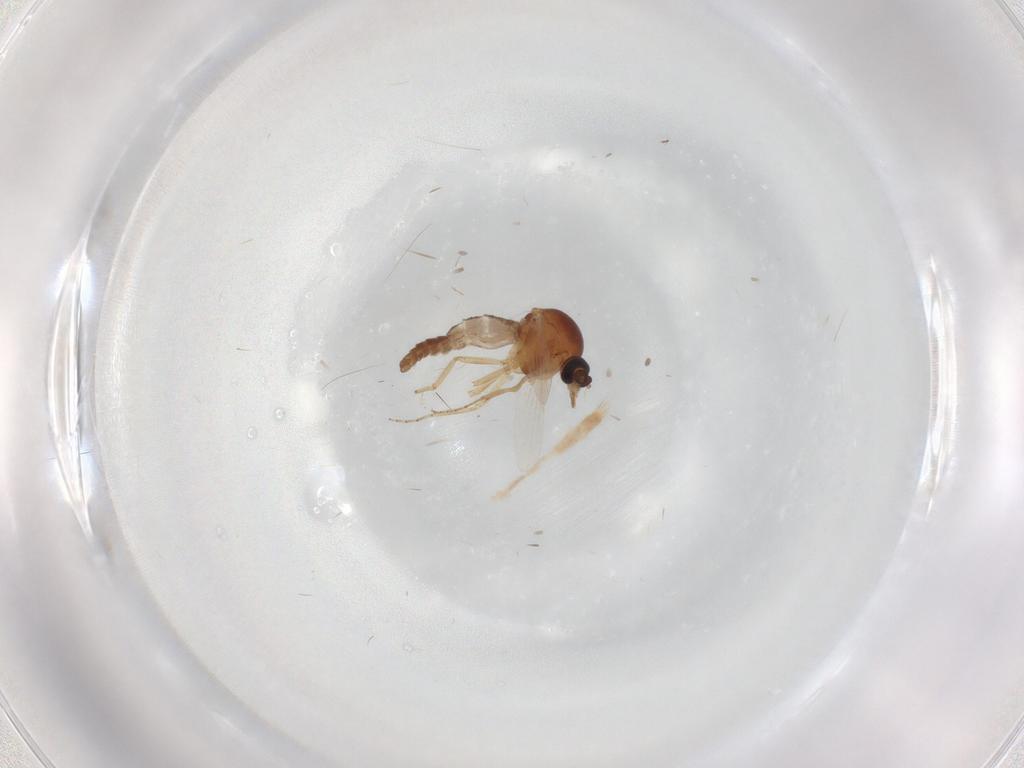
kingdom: Animalia
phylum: Arthropoda
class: Insecta
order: Diptera
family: Ceratopogonidae
